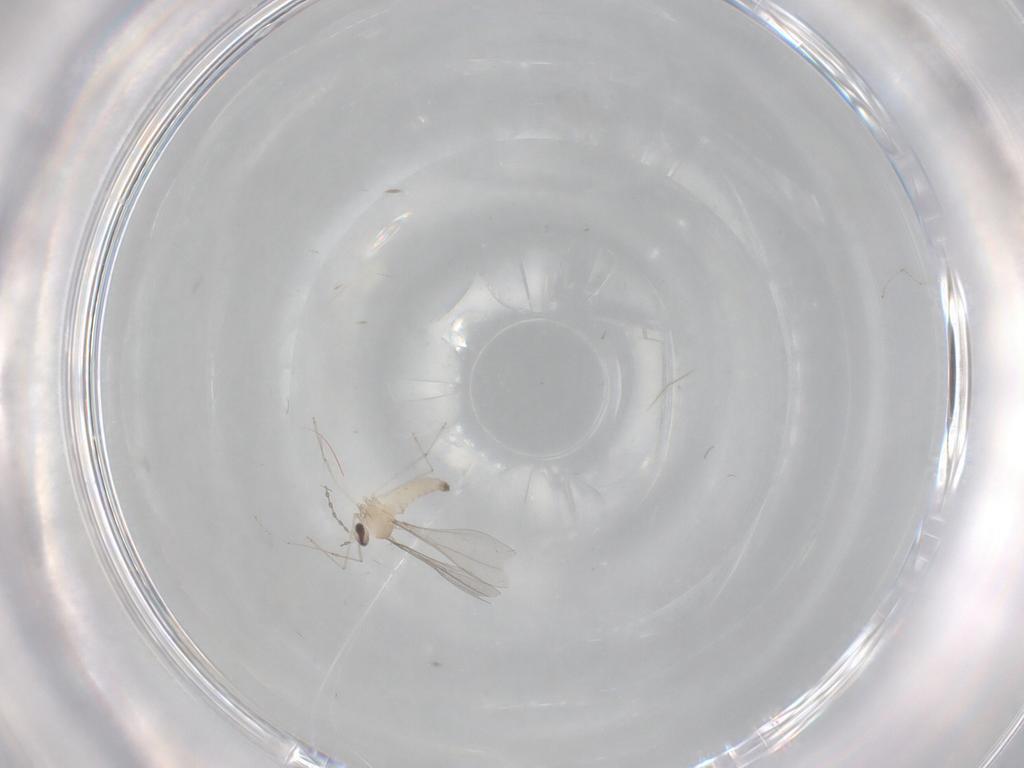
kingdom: Animalia
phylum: Arthropoda
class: Insecta
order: Diptera
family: Cecidomyiidae
